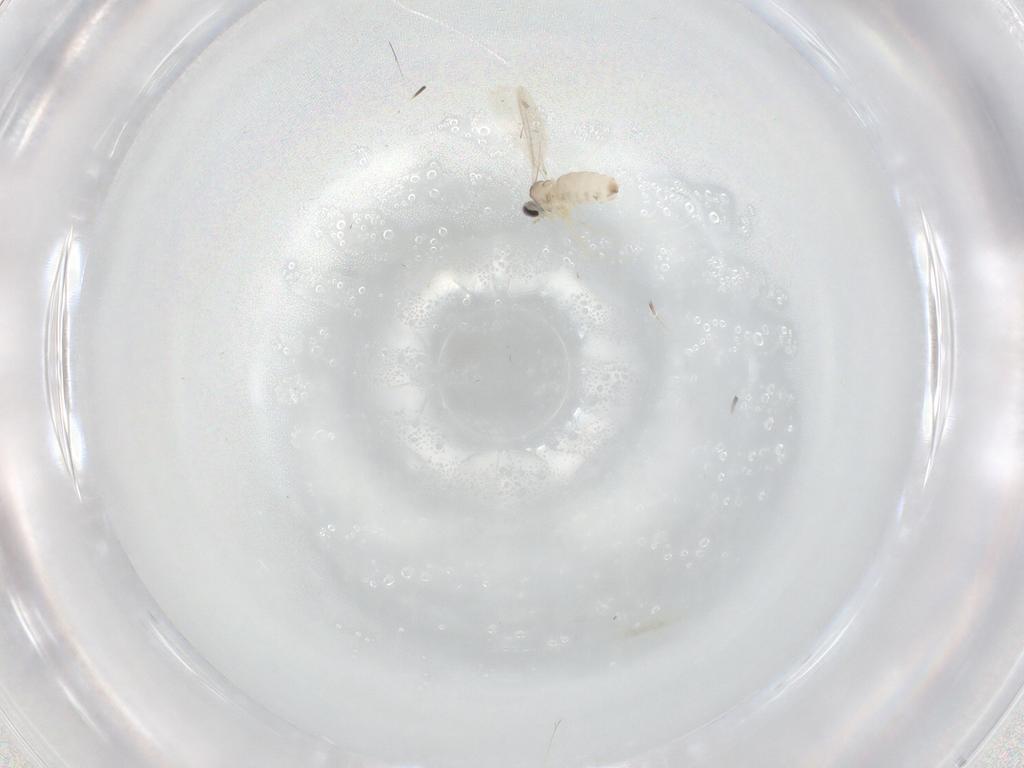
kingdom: Animalia
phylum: Arthropoda
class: Insecta
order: Diptera
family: Cecidomyiidae
